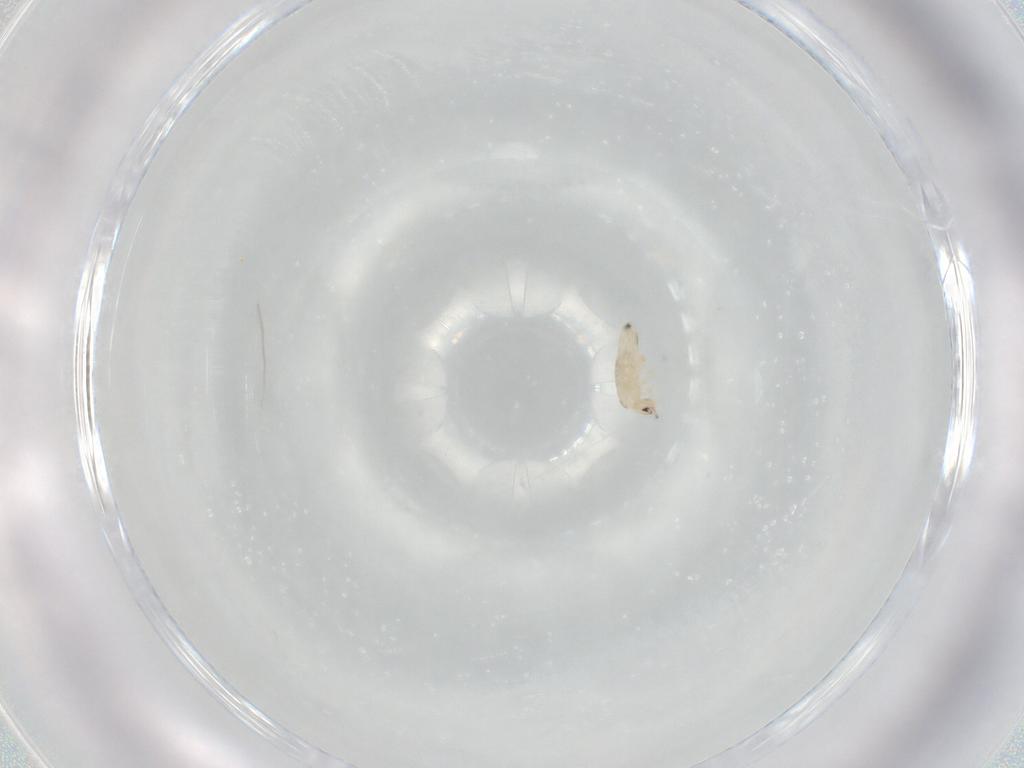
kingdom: Animalia
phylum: Arthropoda
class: Collembola
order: Entomobryomorpha
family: Entomobryidae
